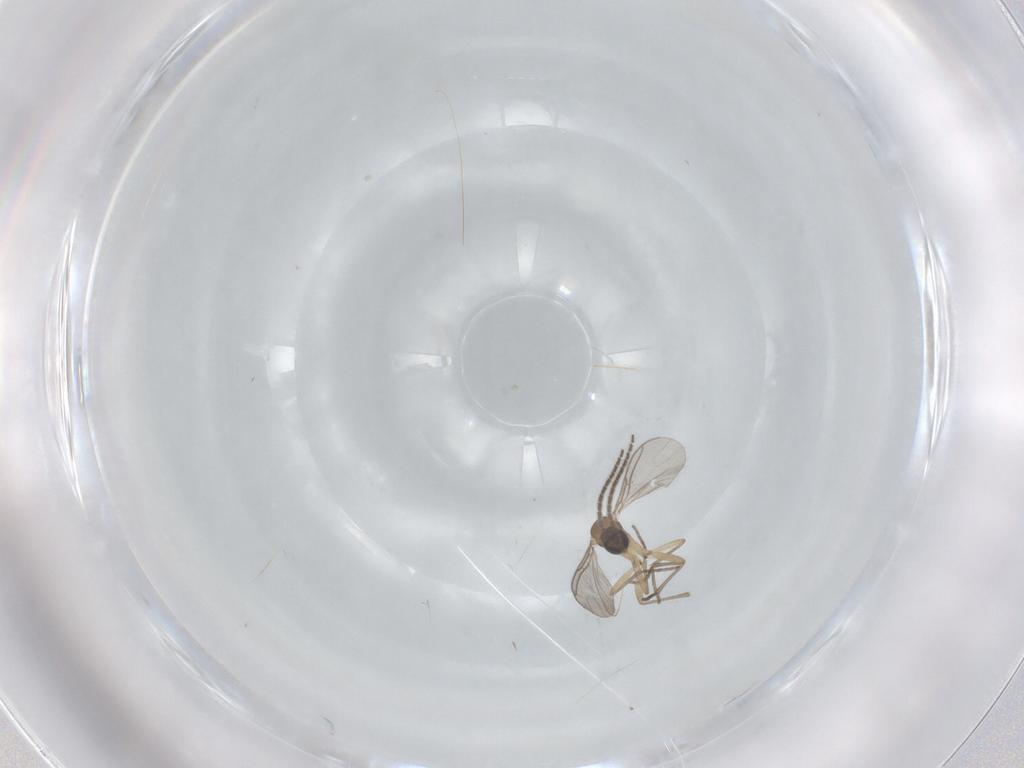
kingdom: Animalia
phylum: Arthropoda
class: Insecta
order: Diptera
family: Sciaridae
